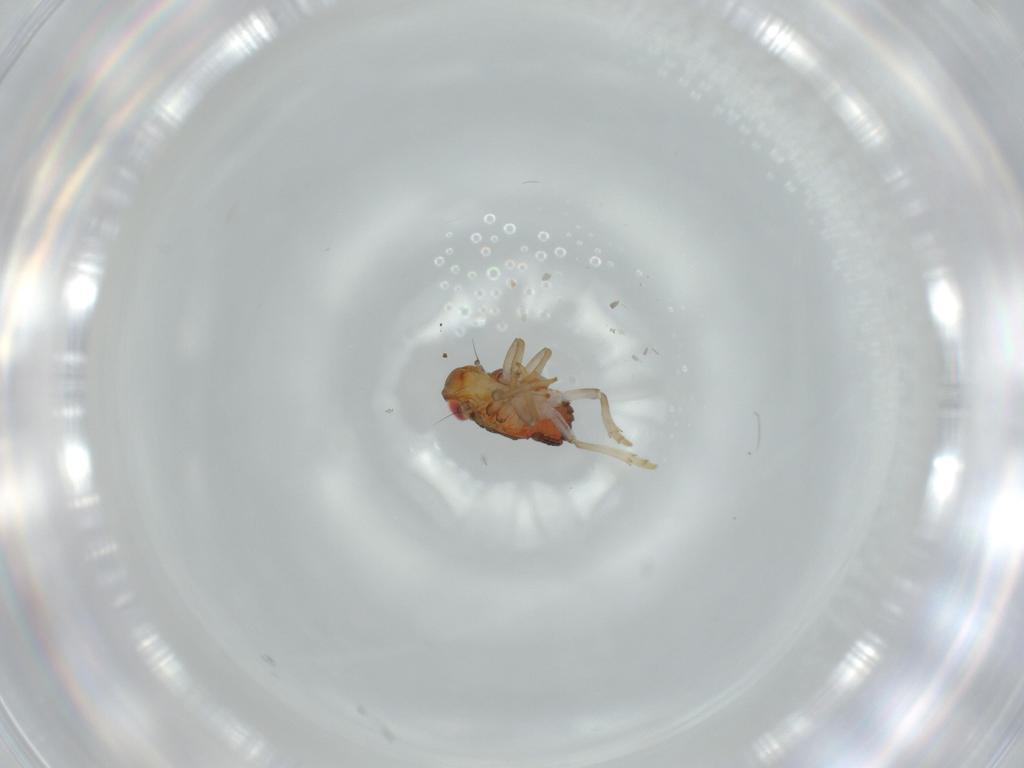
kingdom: Animalia
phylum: Arthropoda
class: Insecta
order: Hemiptera
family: Issidae
